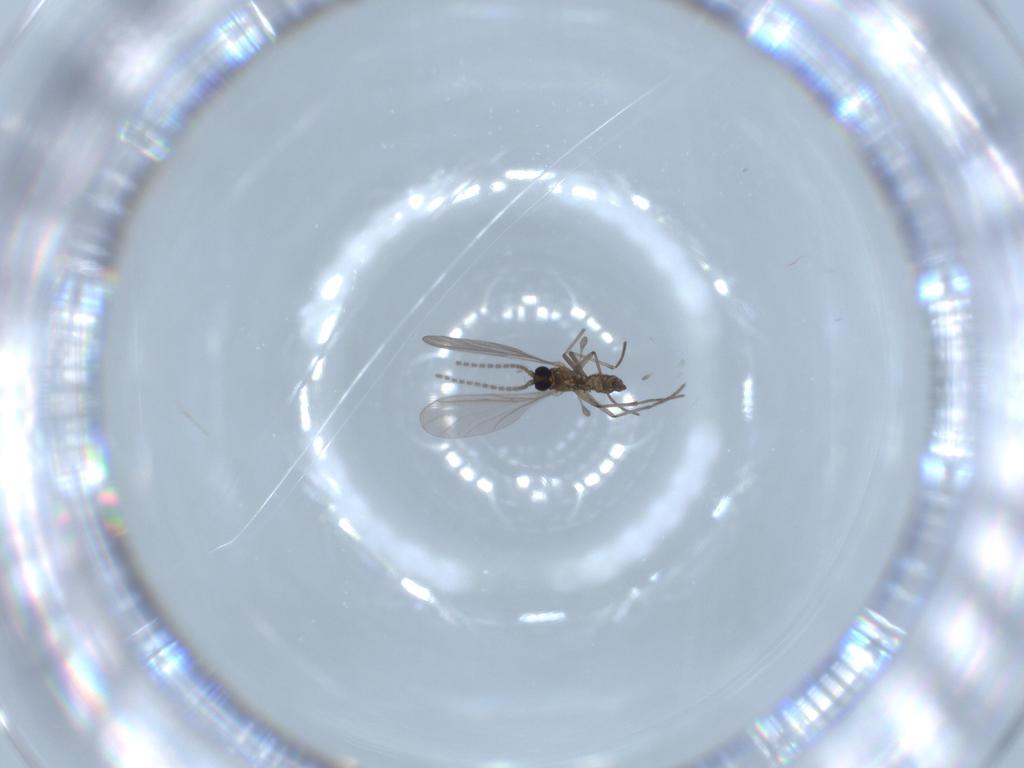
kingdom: Animalia
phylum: Arthropoda
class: Insecta
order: Diptera
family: Sciaridae
